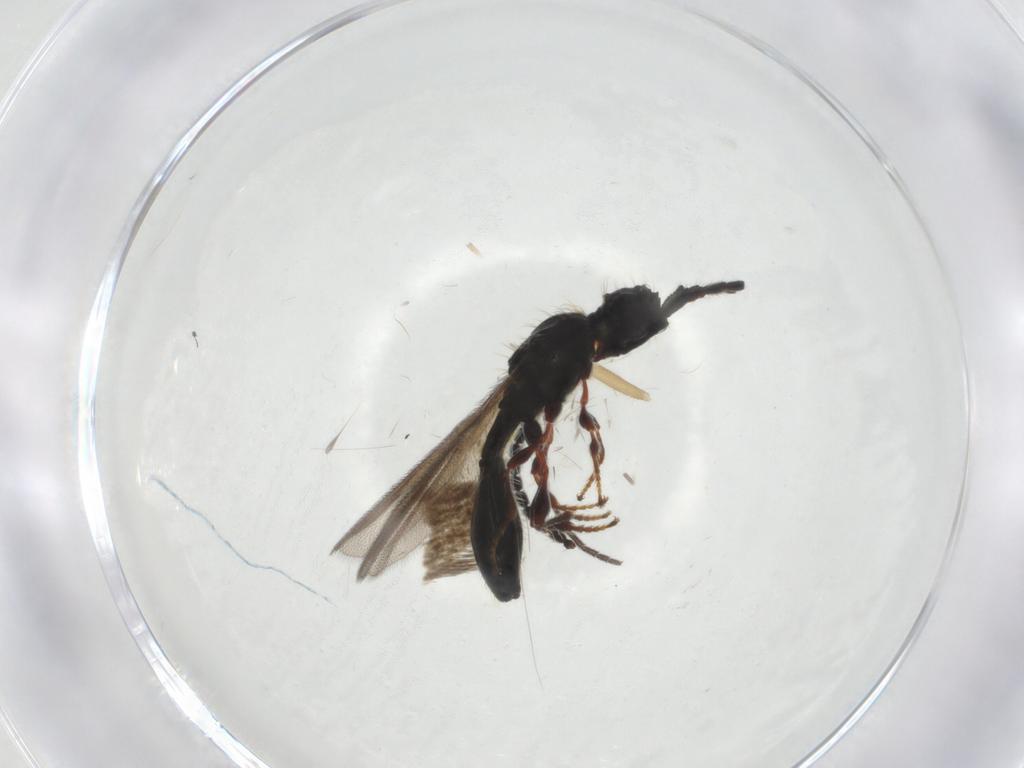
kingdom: Animalia
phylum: Arthropoda
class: Insecta
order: Hymenoptera
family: Diapriidae
